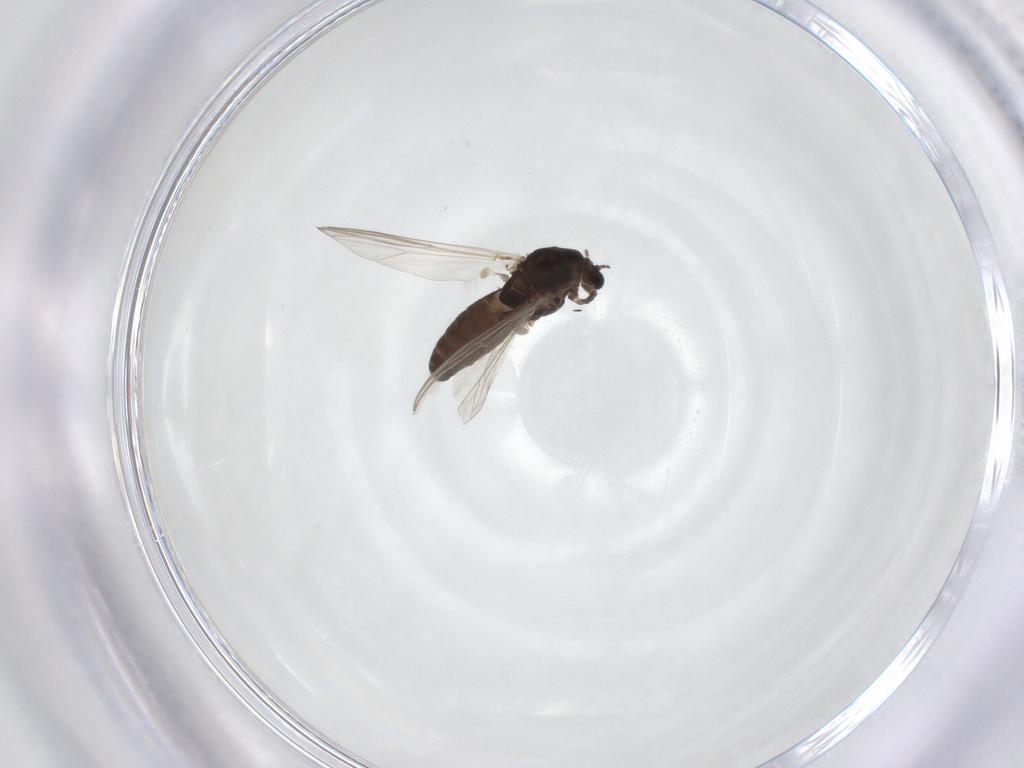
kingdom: Animalia
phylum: Arthropoda
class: Insecta
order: Diptera
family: Chironomidae
